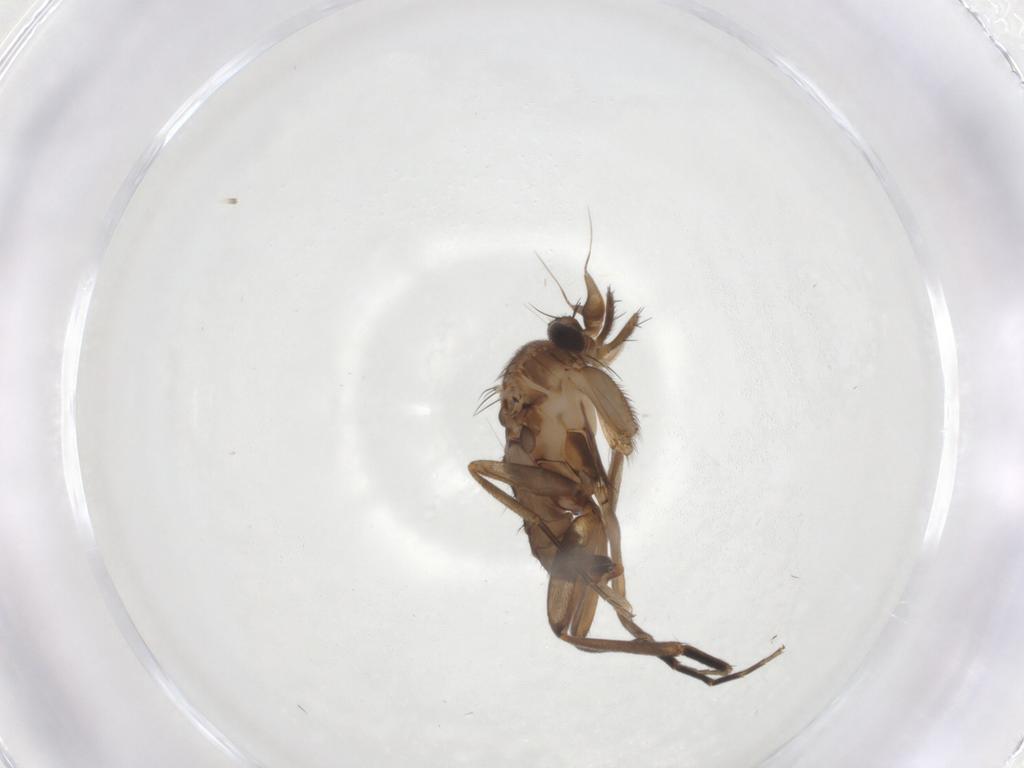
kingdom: Animalia
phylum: Arthropoda
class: Insecta
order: Diptera
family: Phoridae
